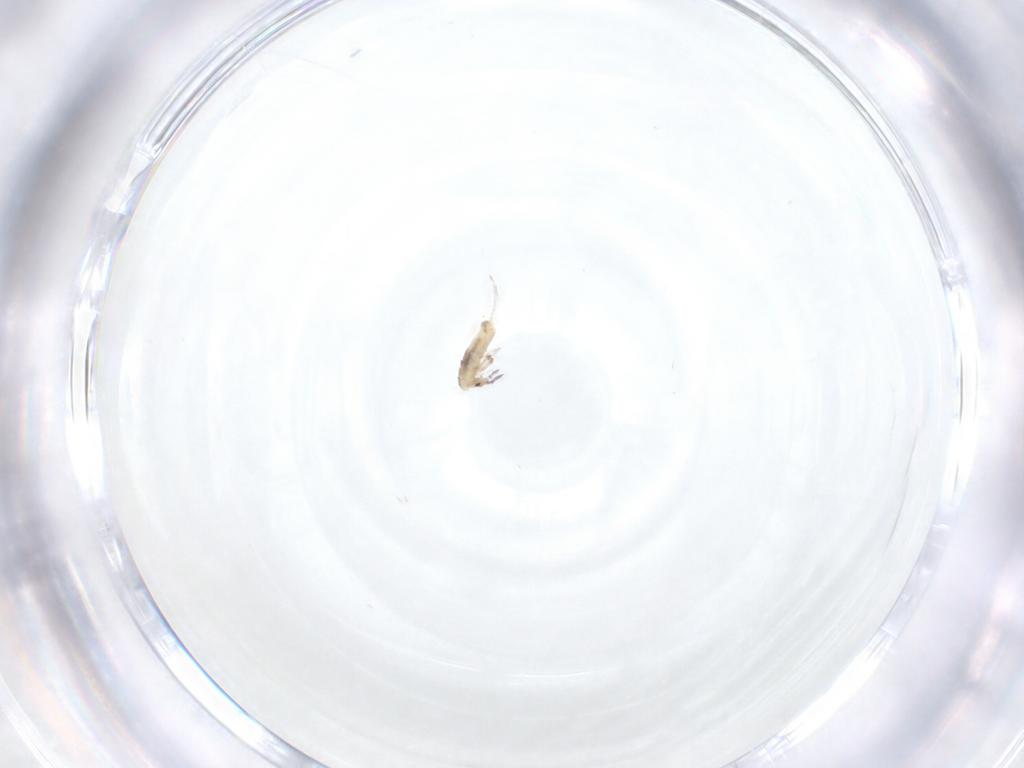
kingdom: Animalia
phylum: Arthropoda
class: Collembola
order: Entomobryomorpha
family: Entomobryidae
